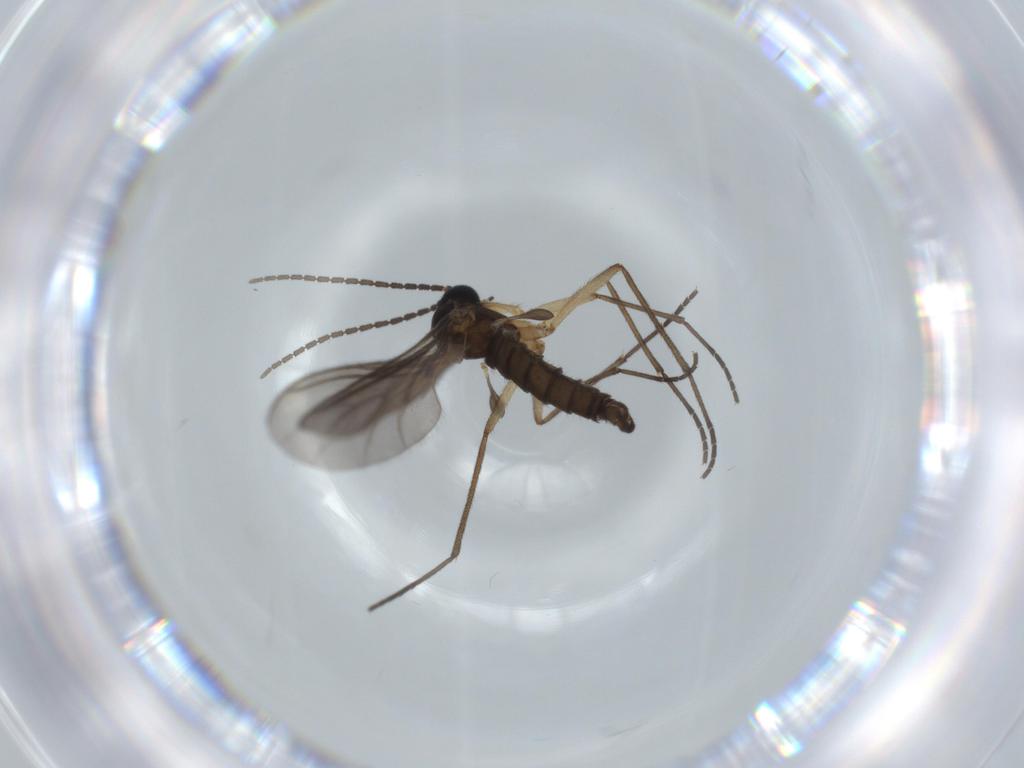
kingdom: Animalia
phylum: Arthropoda
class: Insecta
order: Diptera
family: Sciaridae
